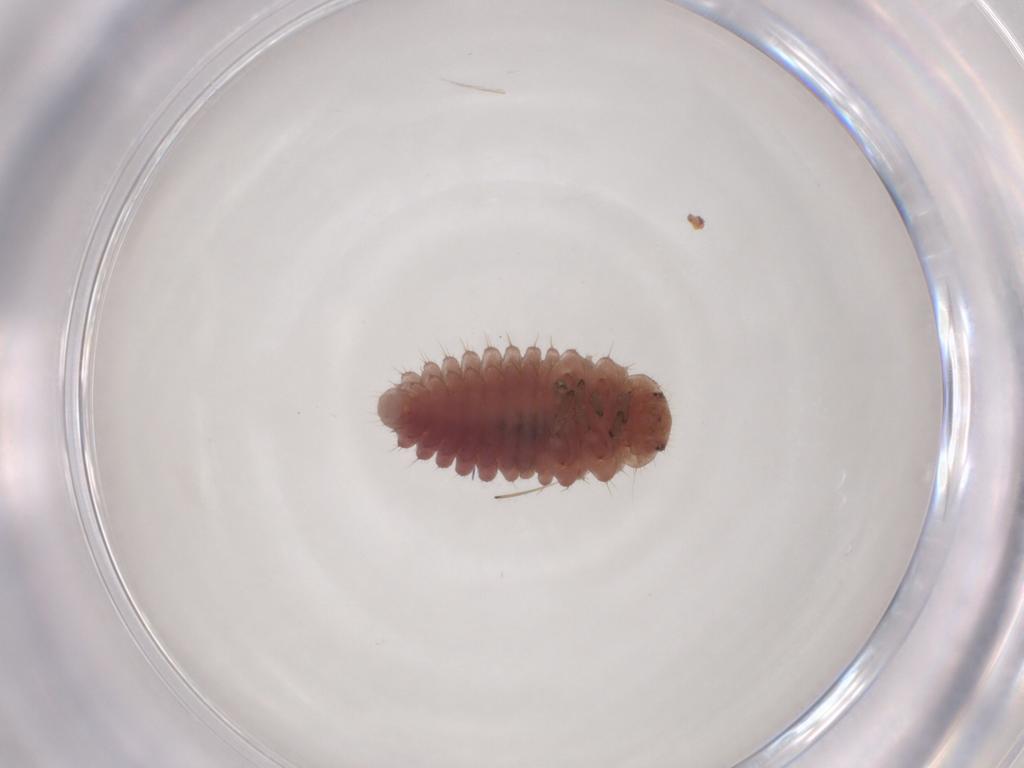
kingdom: Animalia
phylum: Arthropoda
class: Insecta
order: Coleoptera
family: Coccinellidae
